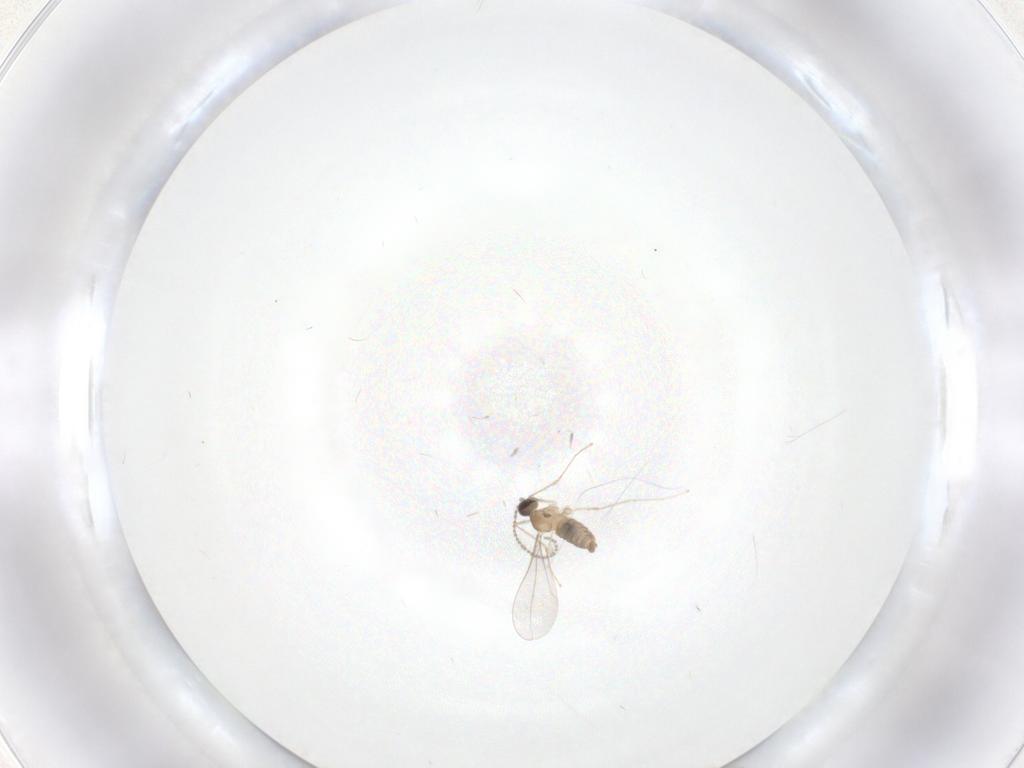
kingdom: Animalia
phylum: Arthropoda
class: Insecta
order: Diptera
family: Cecidomyiidae
